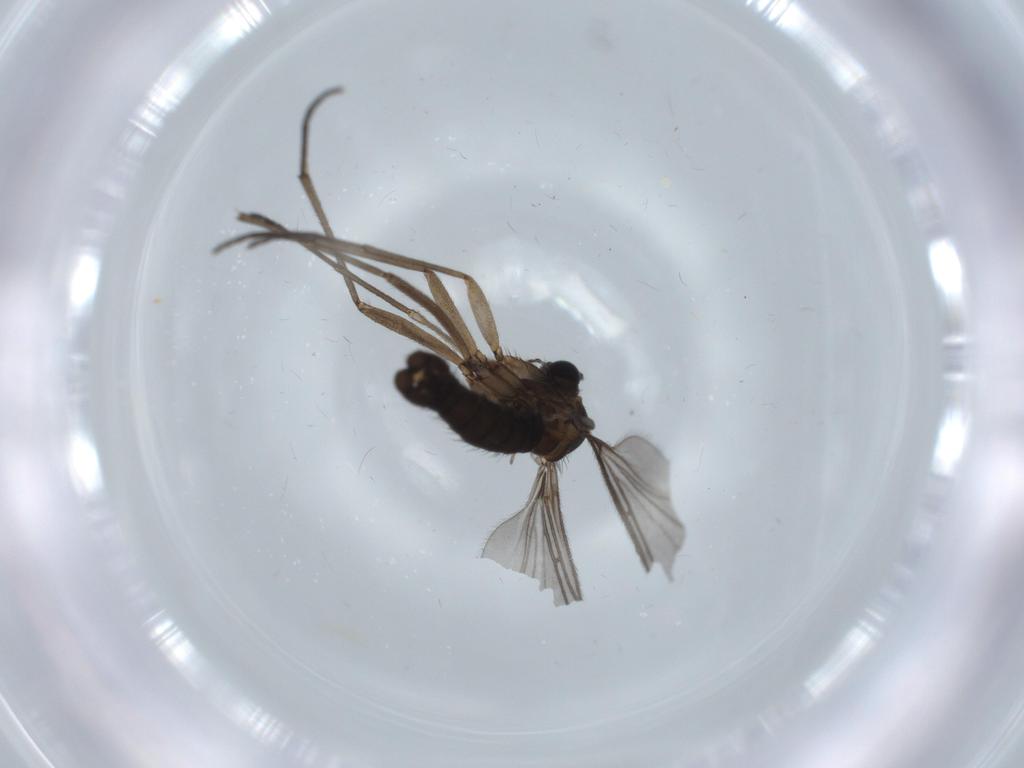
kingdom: Animalia
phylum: Arthropoda
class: Insecta
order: Diptera
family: Sciaridae
